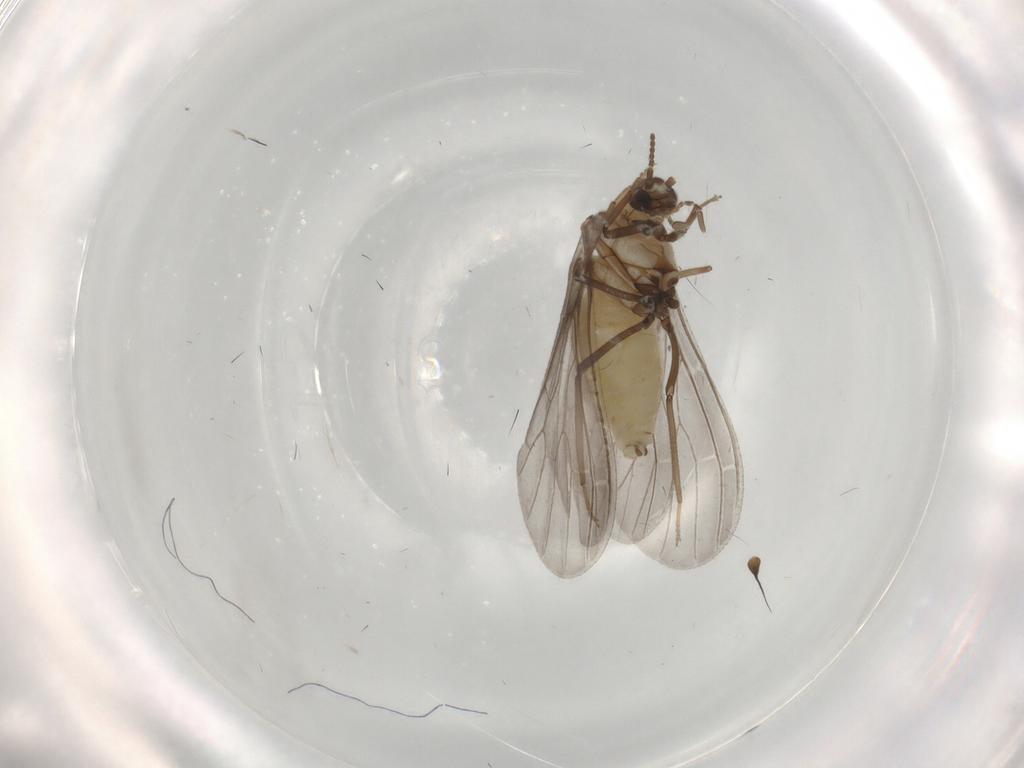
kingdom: Animalia
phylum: Arthropoda
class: Insecta
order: Neuroptera
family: Coniopterygidae
